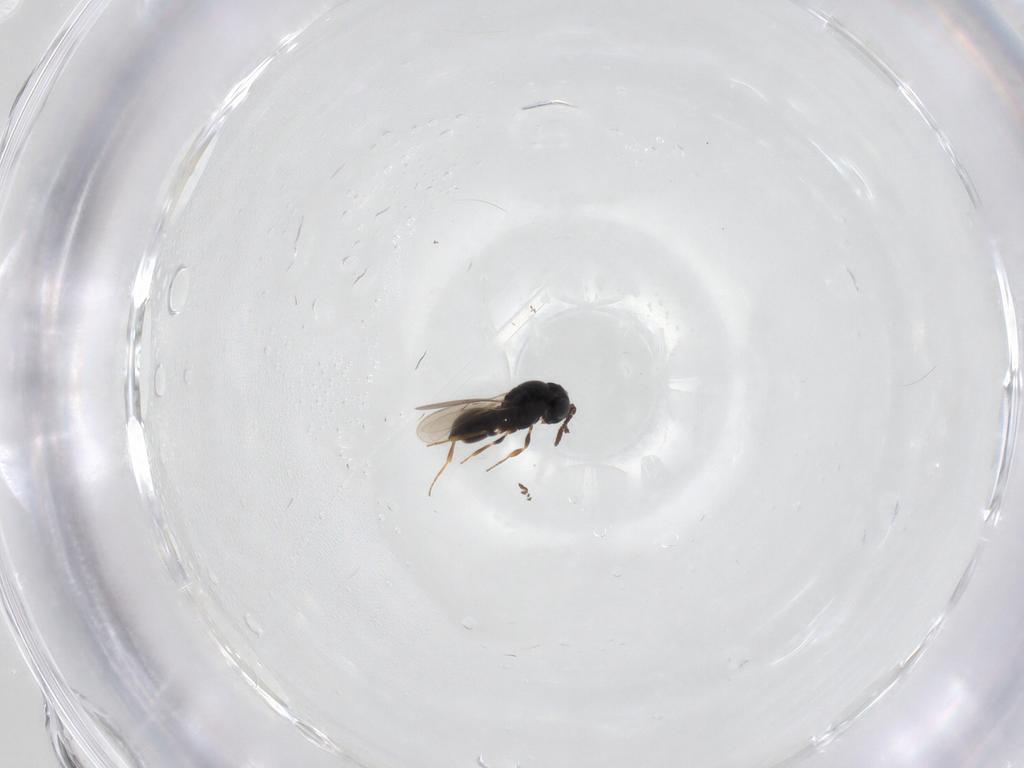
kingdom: Animalia
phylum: Arthropoda
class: Insecta
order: Hymenoptera
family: Scelionidae
